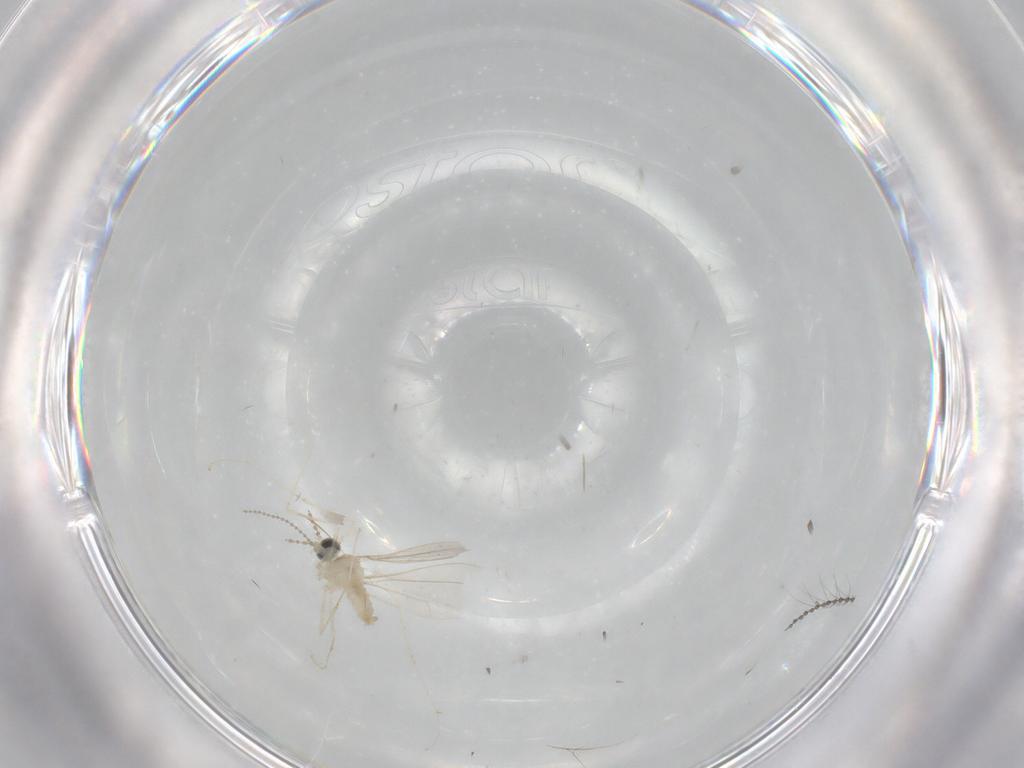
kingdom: Animalia
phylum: Arthropoda
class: Insecta
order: Diptera
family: Cecidomyiidae
